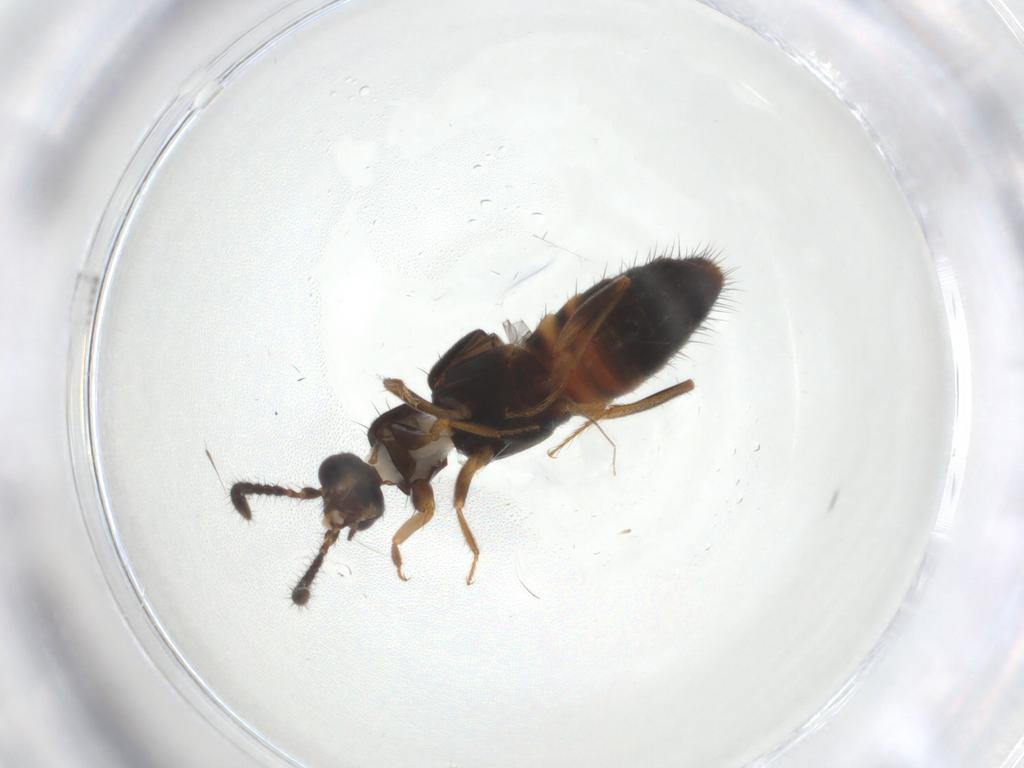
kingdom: Animalia
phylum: Arthropoda
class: Insecta
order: Coleoptera
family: Staphylinidae
